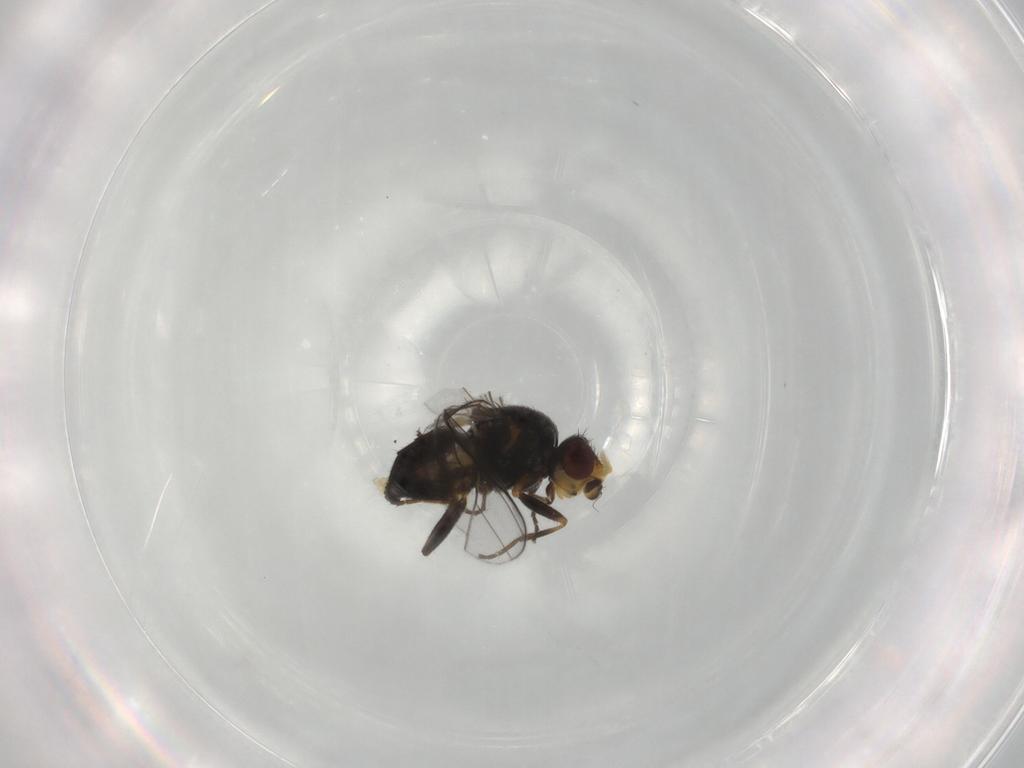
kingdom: Animalia
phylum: Arthropoda
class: Insecta
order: Diptera
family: Chloropidae
